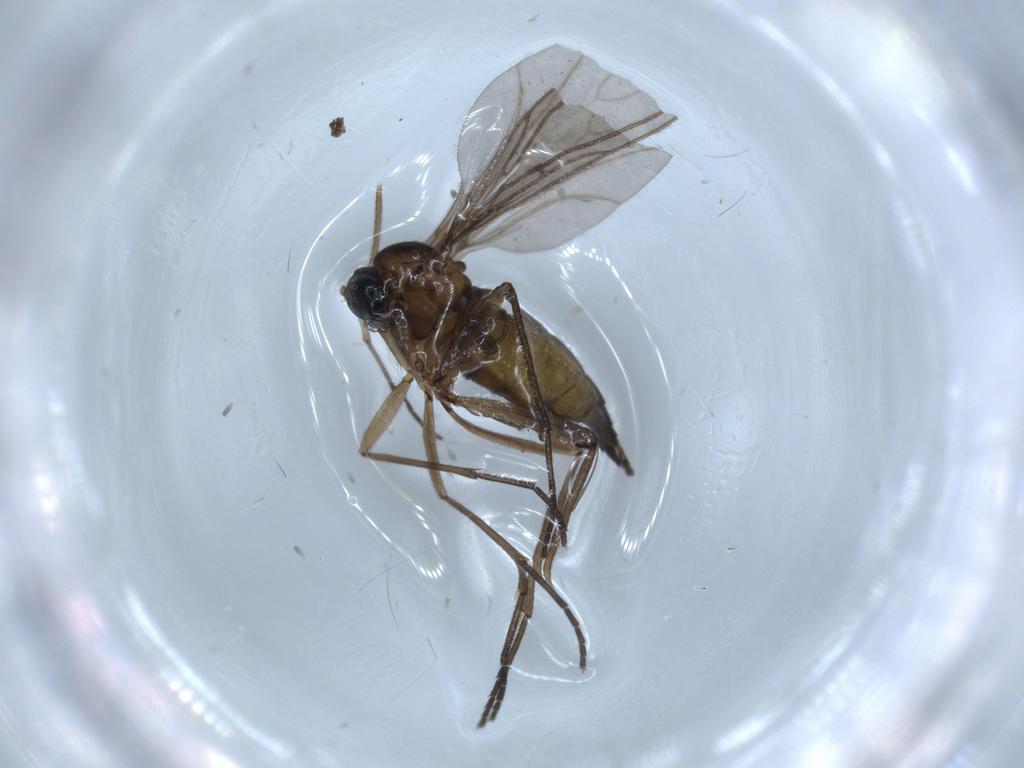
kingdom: Animalia
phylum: Arthropoda
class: Insecta
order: Diptera
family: Sciaridae
